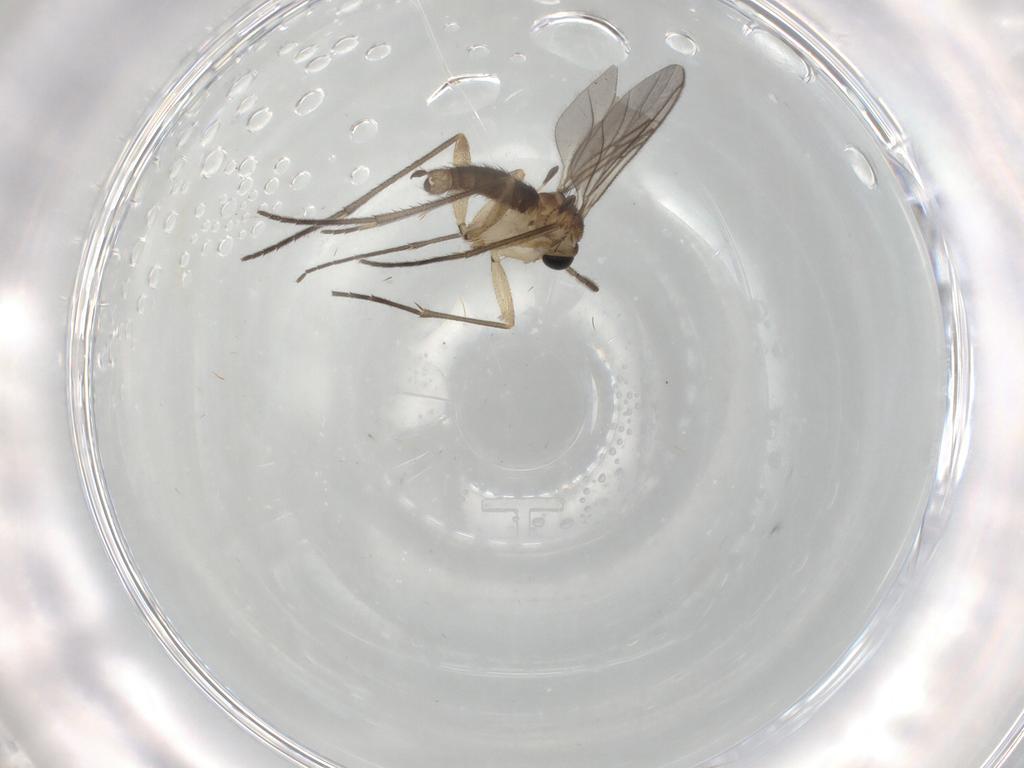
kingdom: Animalia
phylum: Arthropoda
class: Insecta
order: Diptera
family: Sciaridae
